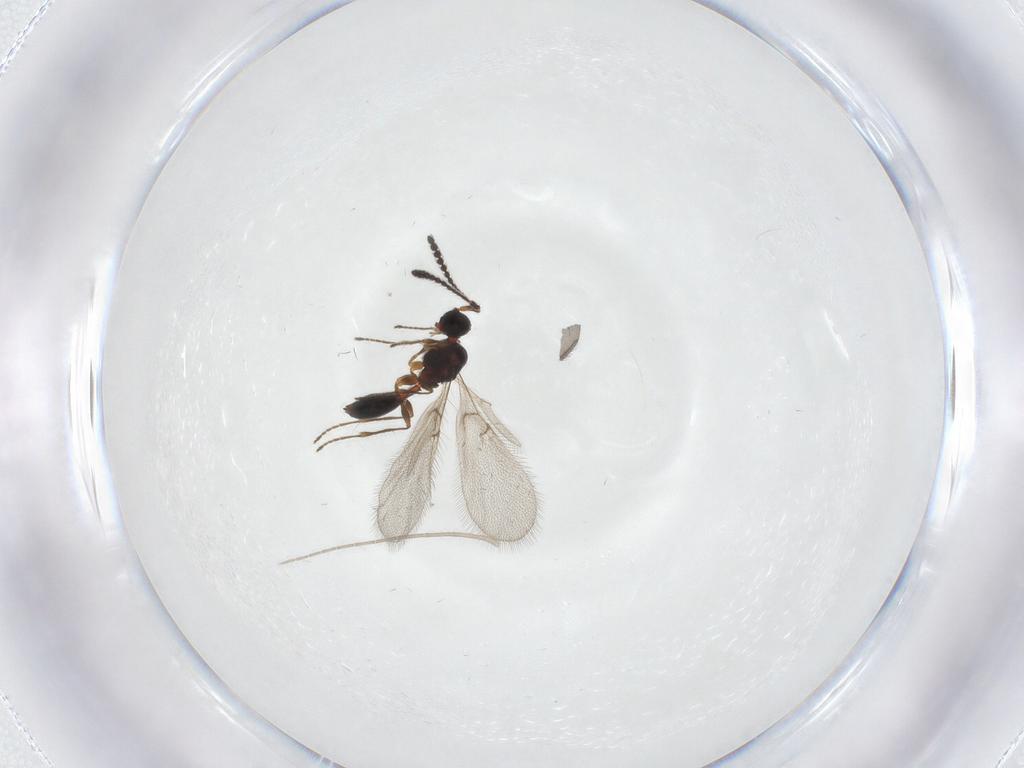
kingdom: Animalia
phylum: Arthropoda
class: Insecta
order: Hymenoptera
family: Diapriidae
